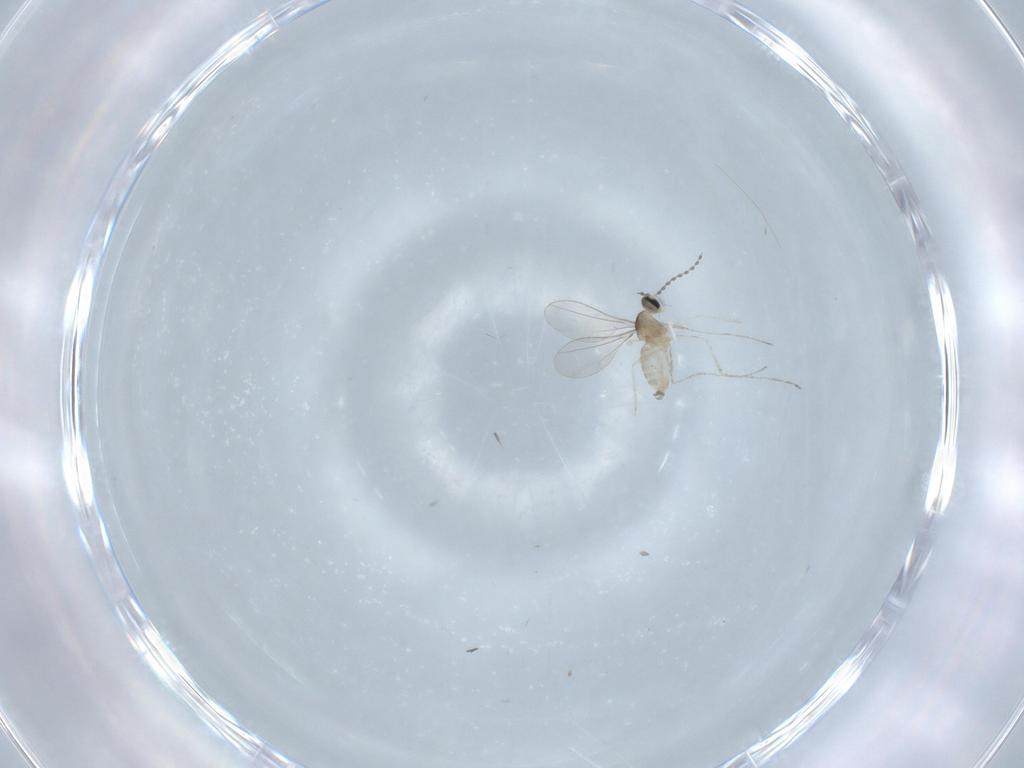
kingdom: Animalia
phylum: Arthropoda
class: Insecta
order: Diptera
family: Cecidomyiidae
